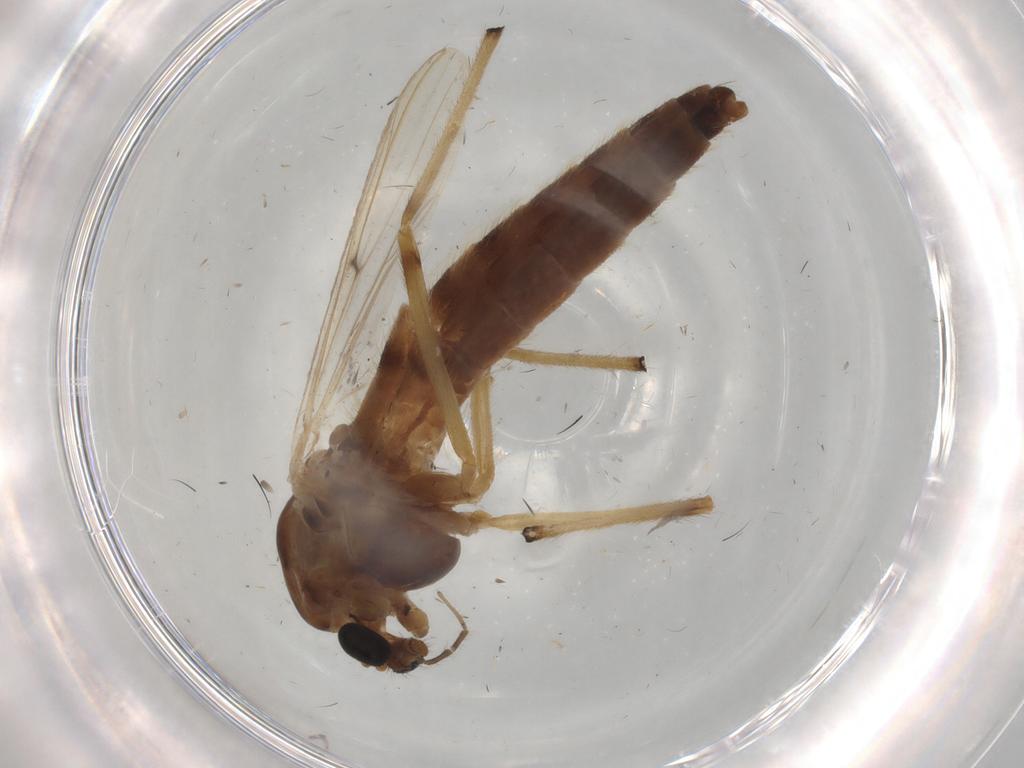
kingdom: Animalia
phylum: Arthropoda
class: Insecta
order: Diptera
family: Chironomidae
